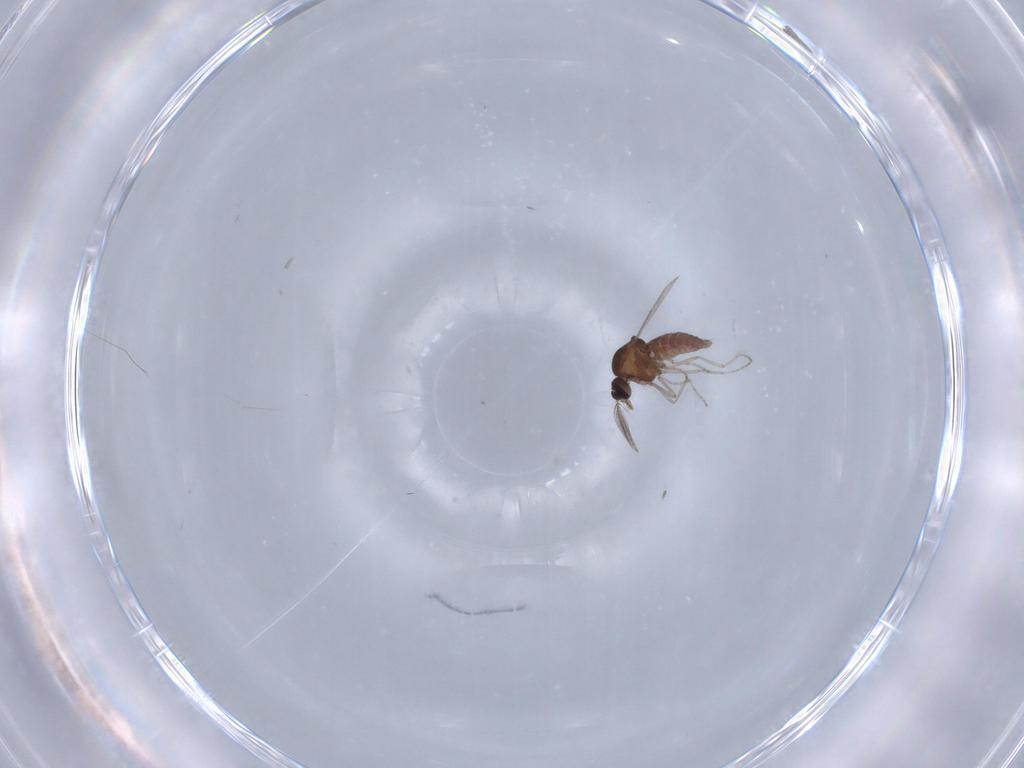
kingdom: Animalia
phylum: Arthropoda
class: Insecta
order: Diptera
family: Ceratopogonidae
